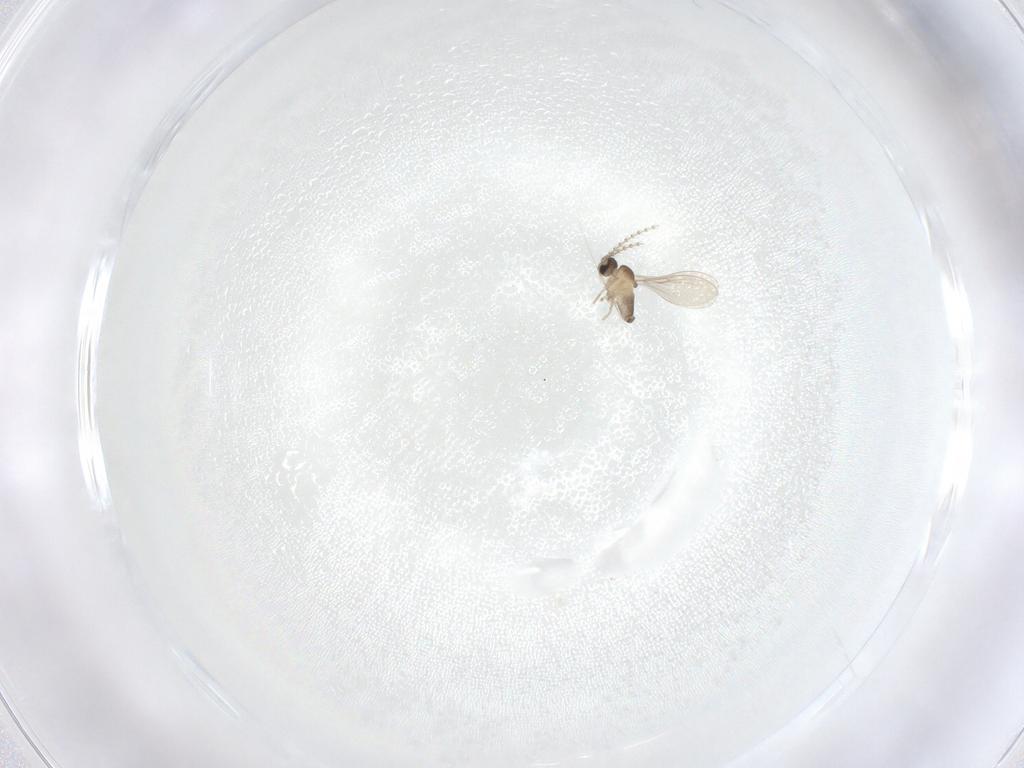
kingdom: Animalia
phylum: Arthropoda
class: Insecta
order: Diptera
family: Cecidomyiidae
